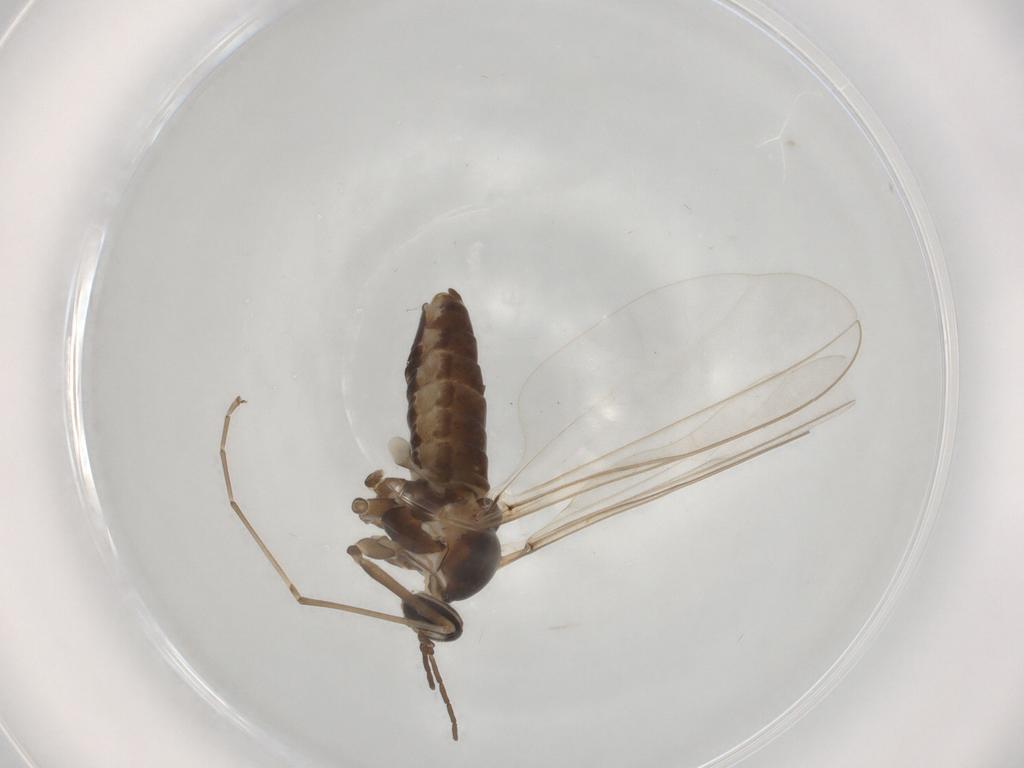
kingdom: Animalia
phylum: Arthropoda
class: Insecta
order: Diptera
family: Cecidomyiidae
